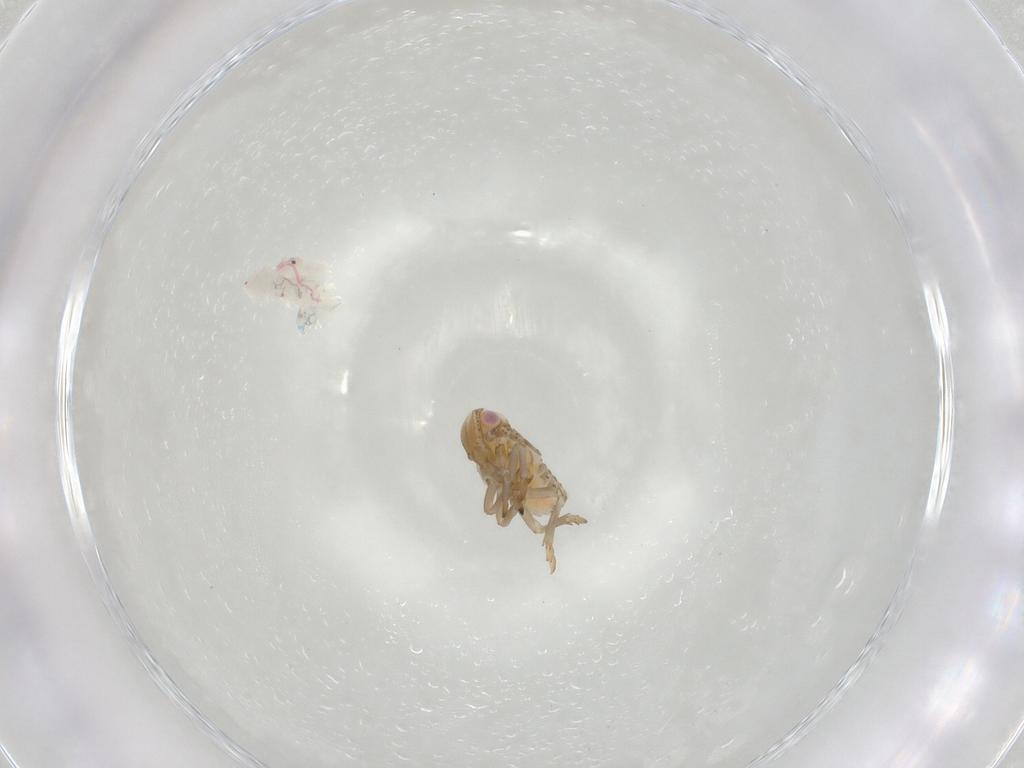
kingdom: Animalia
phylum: Arthropoda
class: Insecta
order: Hemiptera
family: Tropiduchidae
